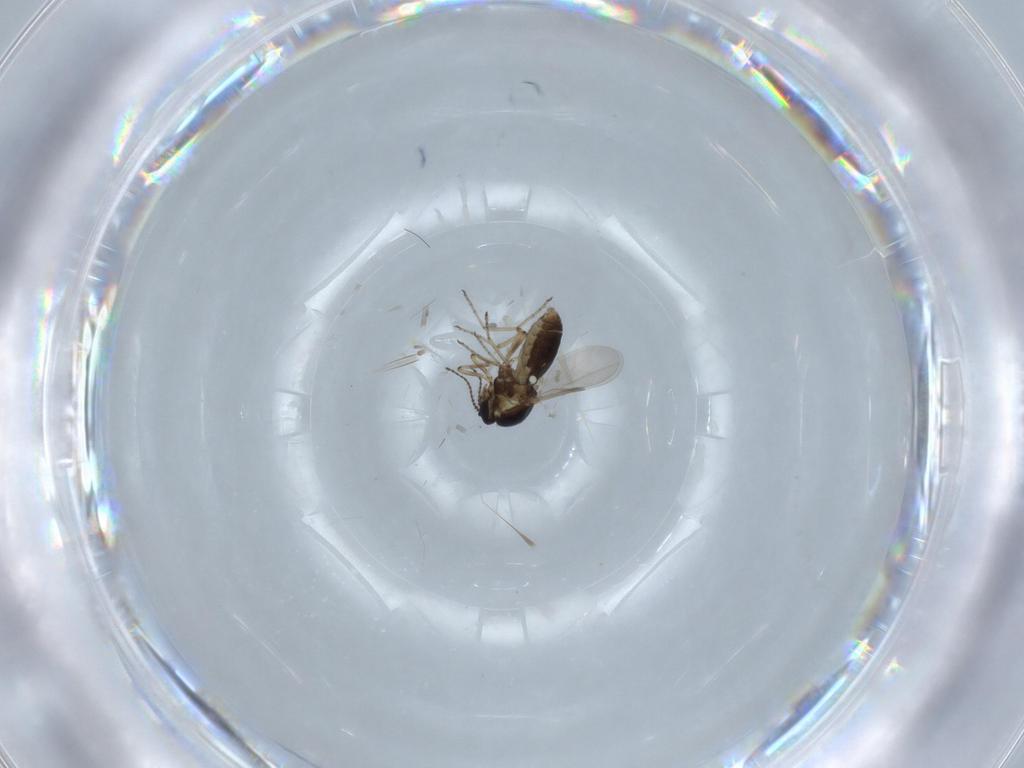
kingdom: Animalia
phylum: Arthropoda
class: Insecta
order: Diptera
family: Ceratopogonidae
